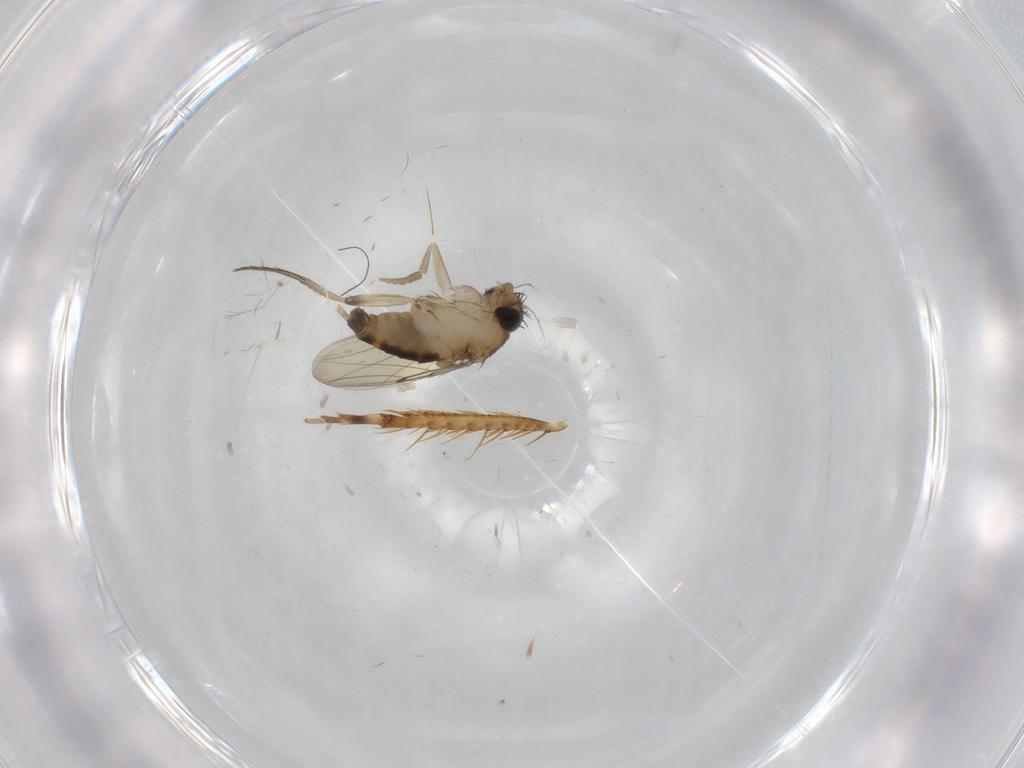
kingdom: Animalia
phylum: Arthropoda
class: Insecta
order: Diptera
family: Phoridae
